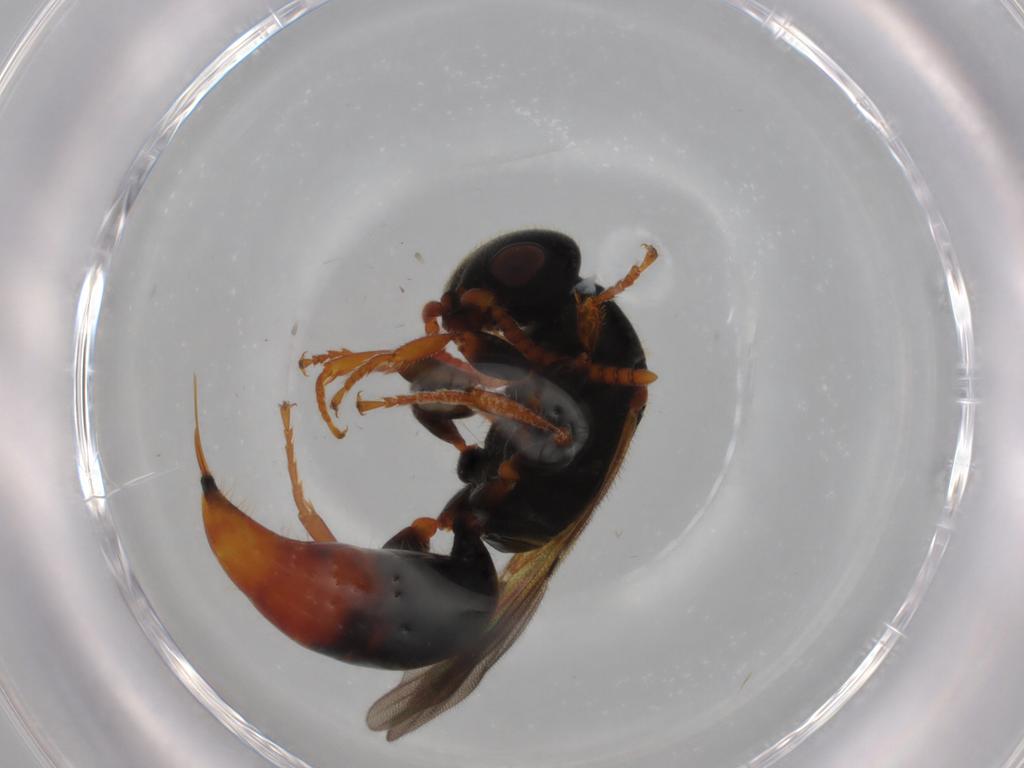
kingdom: Animalia
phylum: Arthropoda
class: Insecta
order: Hymenoptera
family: Bethylidae
